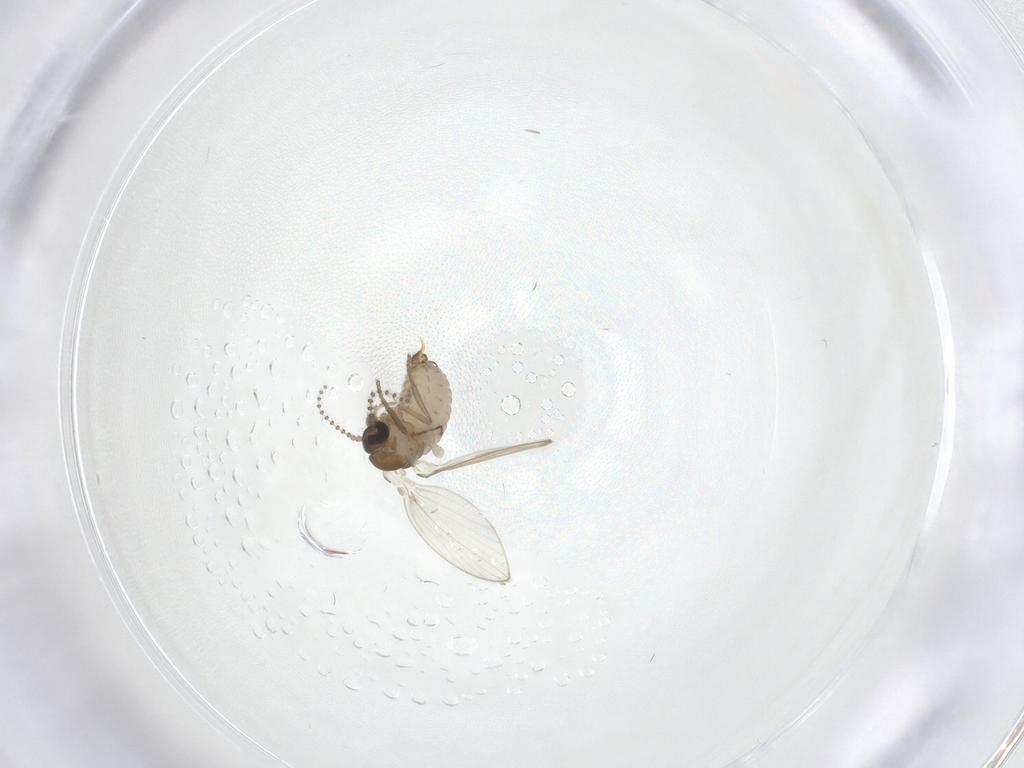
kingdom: Animalia
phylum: Arthropoda
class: Insecta
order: Diptera
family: Psychodidae
